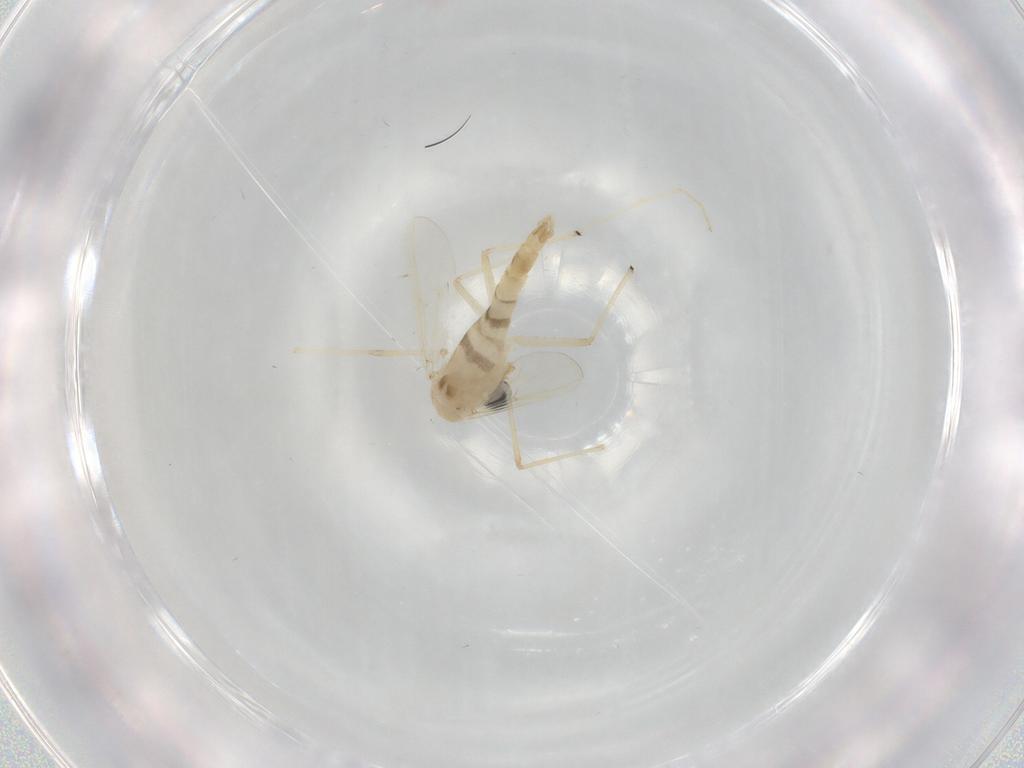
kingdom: Animalia
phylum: Arthropoda
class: Insecta
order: Diptera
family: Chironomidae
